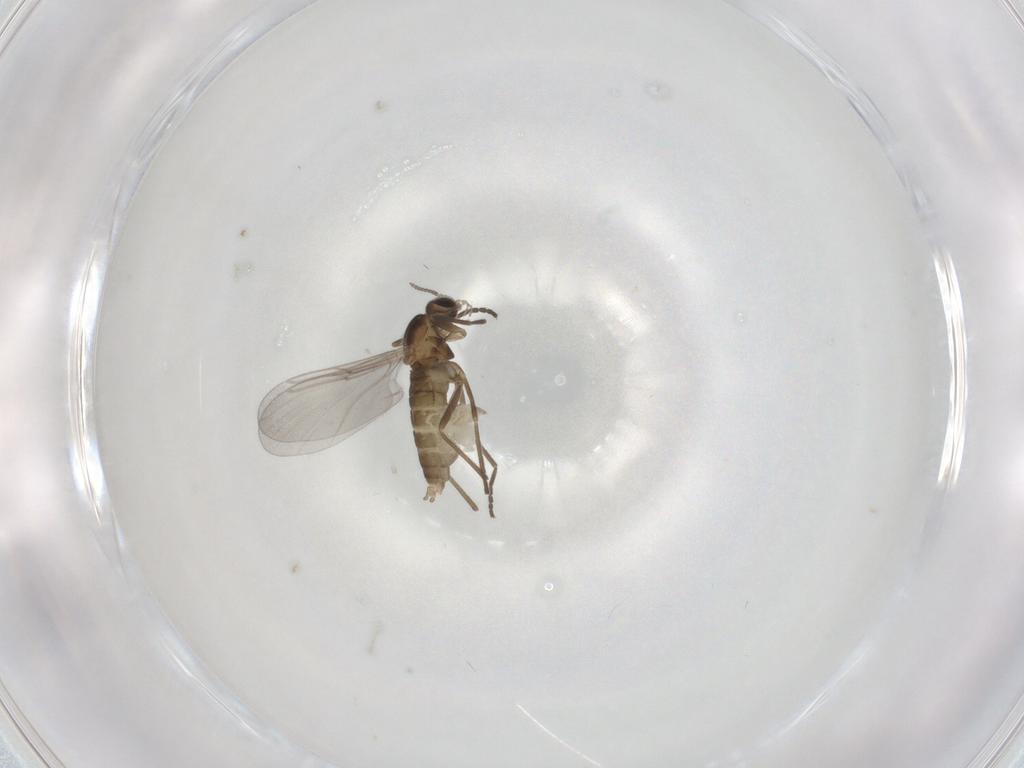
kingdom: Animalia
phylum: Arthropoda
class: Insecta
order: Diptera
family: Cecidomyiidae
